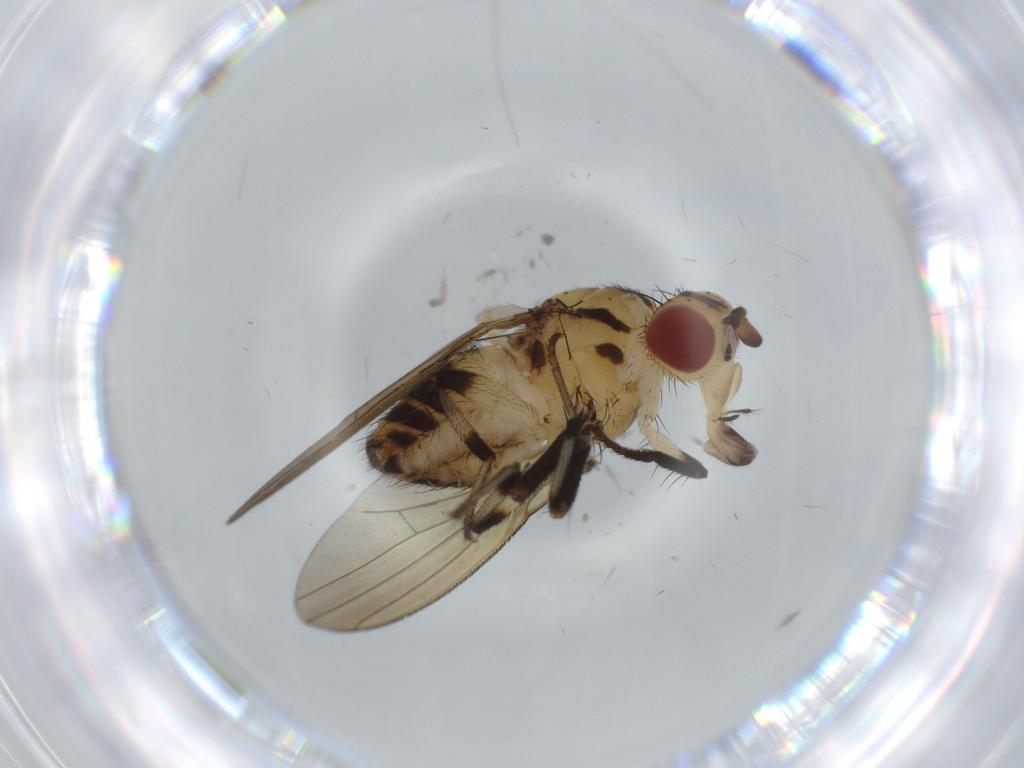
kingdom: Animalia
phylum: Arthropoda
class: Insecta
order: Diptera
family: Lauxaniidae
